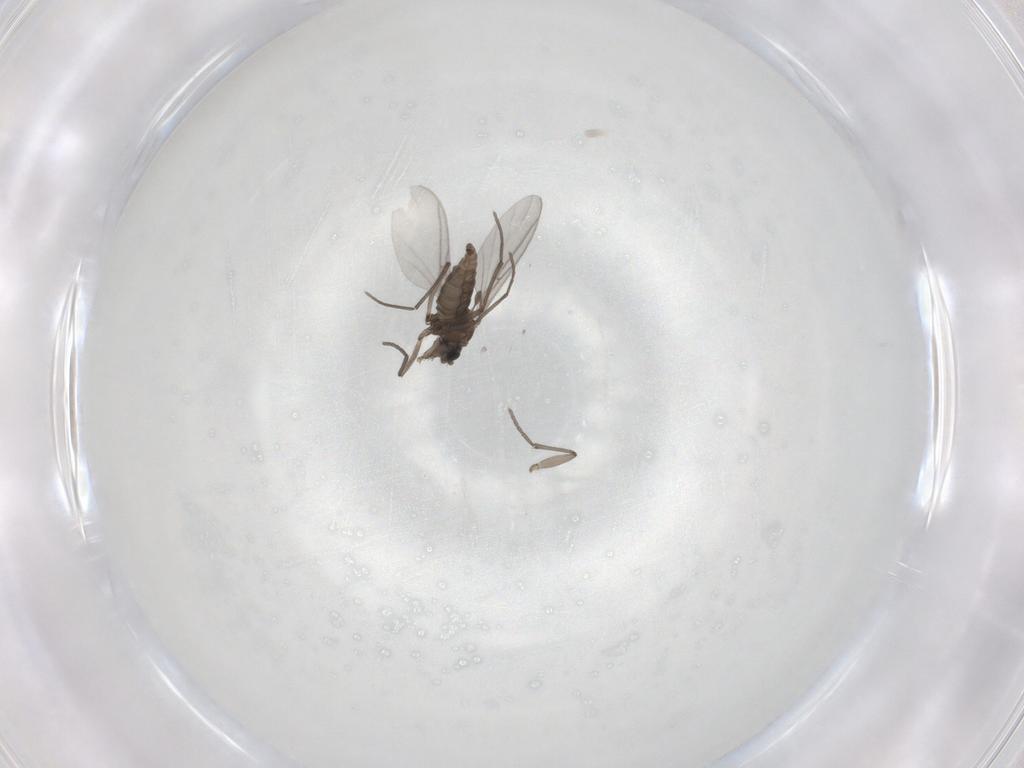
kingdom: Animalia
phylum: Arthropoda
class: Insecta
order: Diptera
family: Sciaridae
